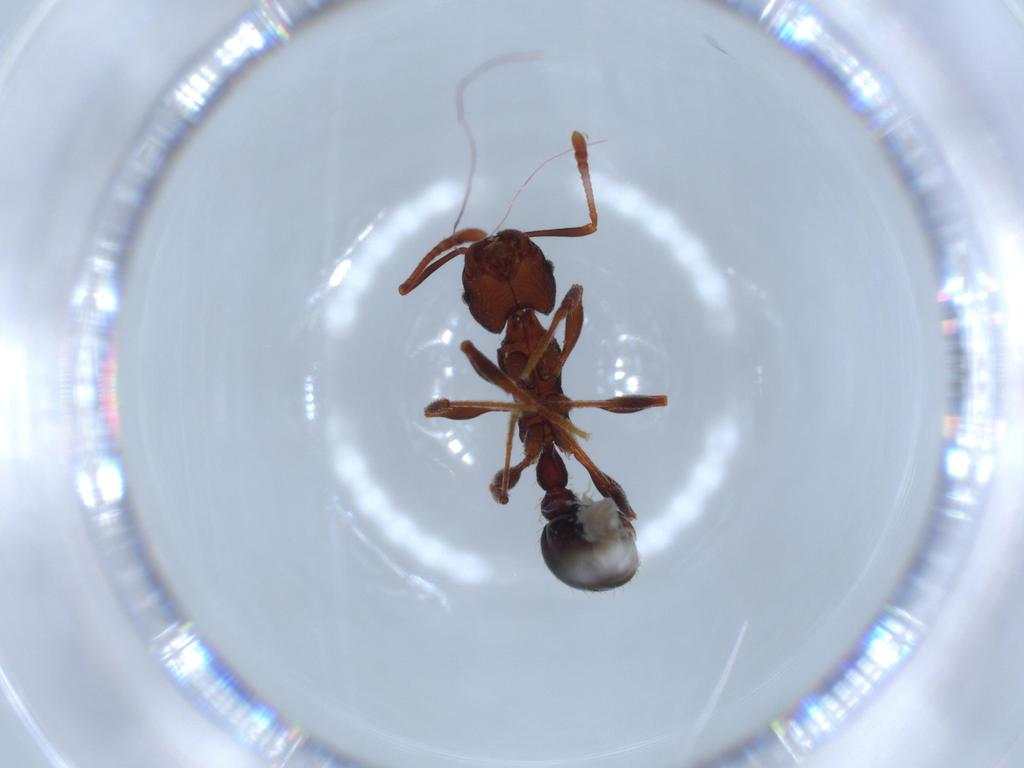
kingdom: Animalia
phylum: Arthropoda
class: Insecta
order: Hymenoptera
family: Formicidae
